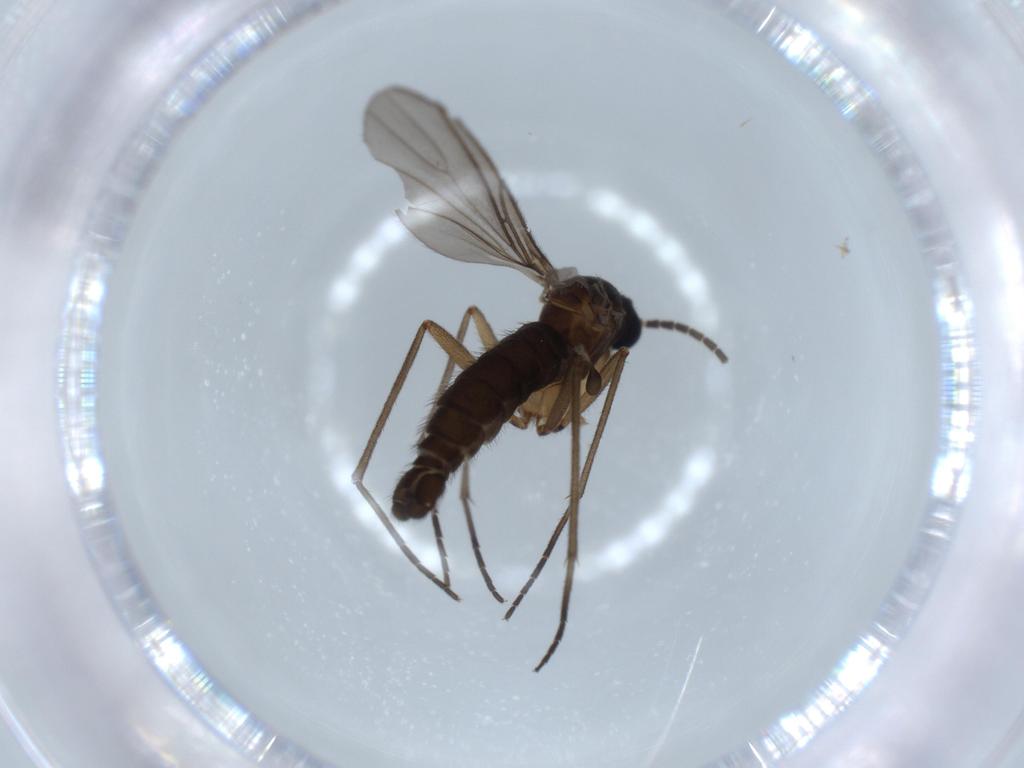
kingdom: Animalia
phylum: Arthropoda
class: Insecta
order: Diptera
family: Sciaridae
